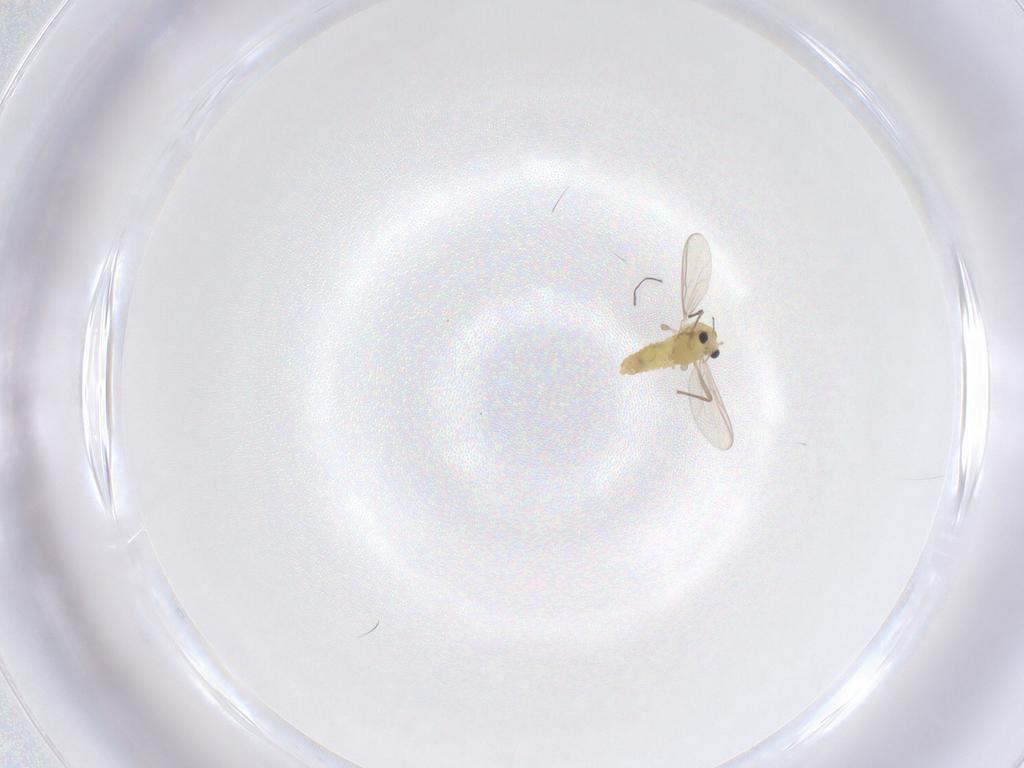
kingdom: Animalia
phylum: Arthropoda
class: Insecta
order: Diptera
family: Chironomidae
